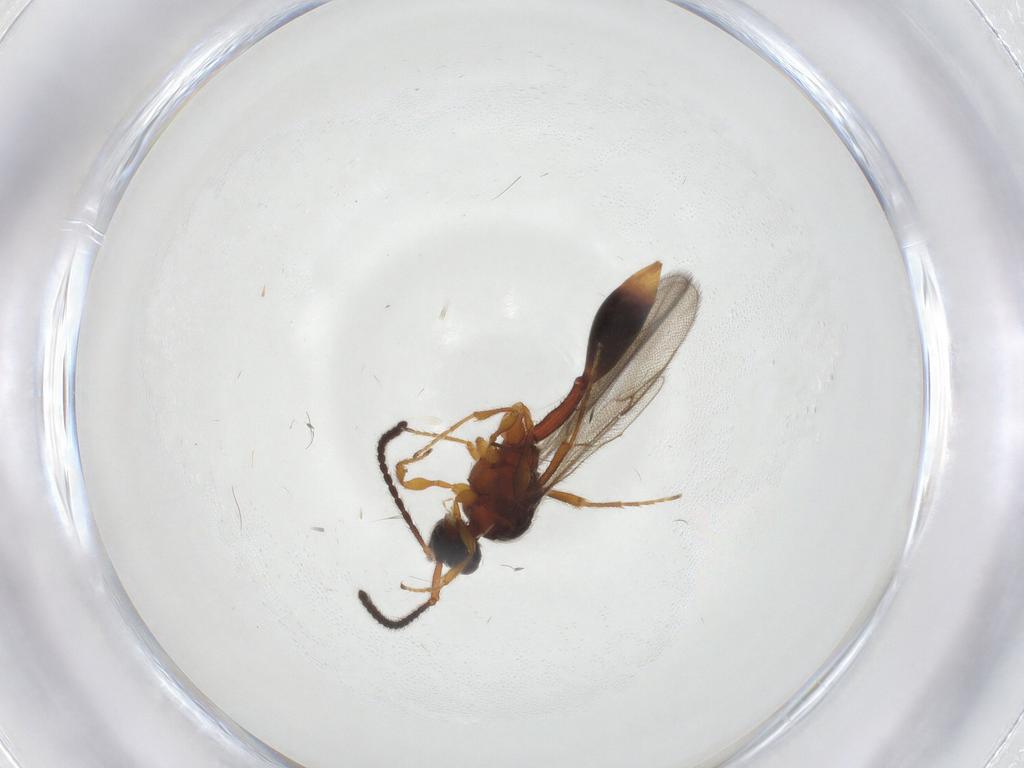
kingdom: Animalia
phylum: Arthropoda
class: Insecta
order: Hymenoptera
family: Diapriidae
